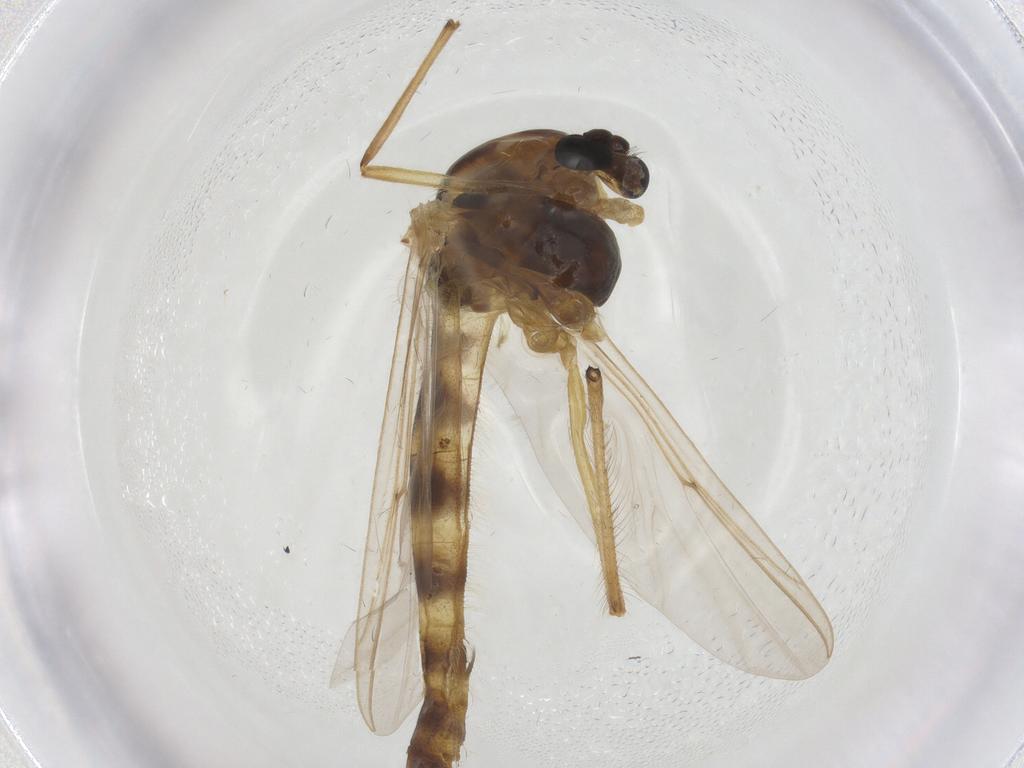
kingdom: Animalia
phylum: Arthropoda
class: Insecta
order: Diptera
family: Chironomidae
